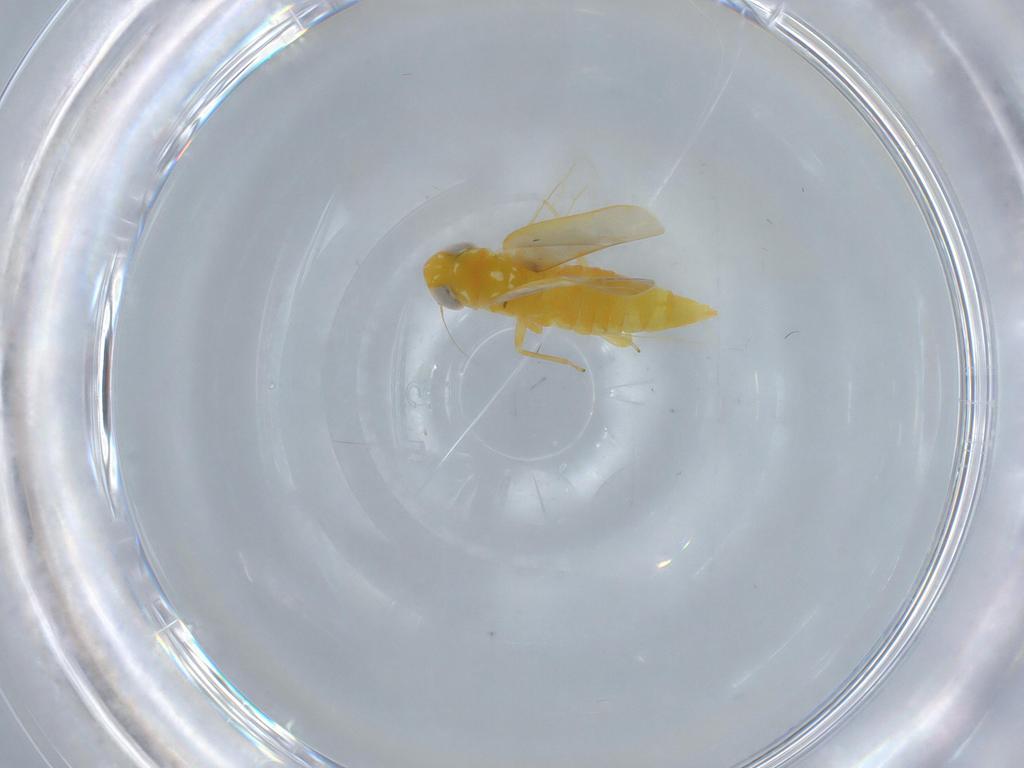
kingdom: Animalia
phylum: Arthropoda
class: Insecta
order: Hemiptera
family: Cicadellidae
